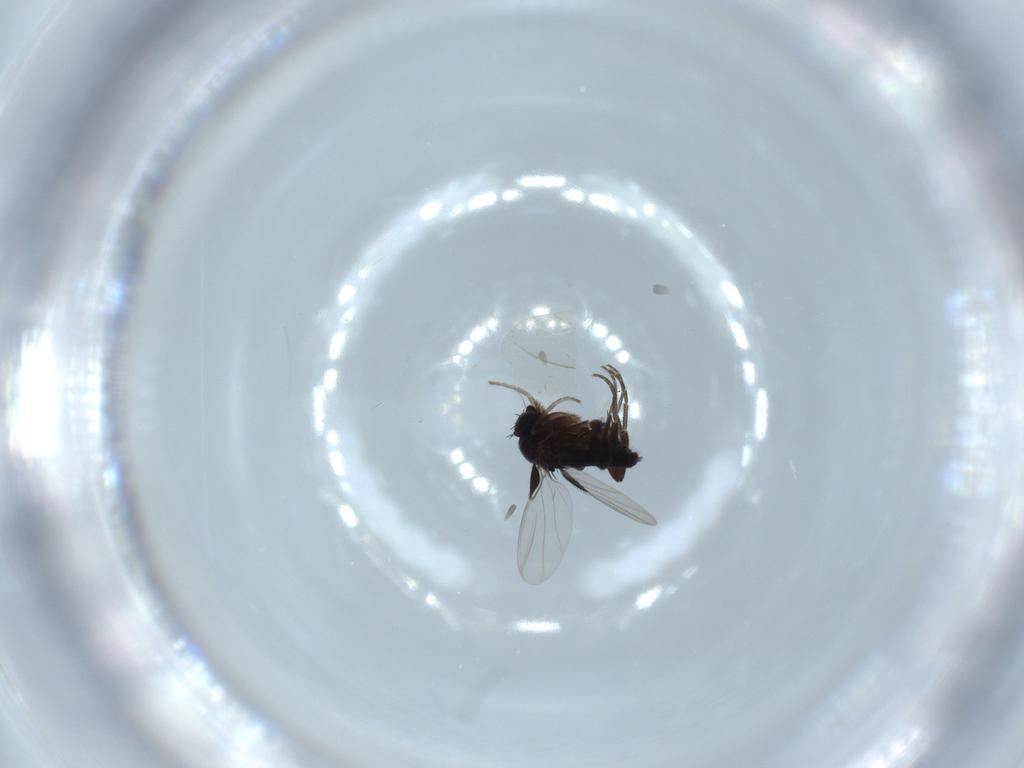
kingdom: Animalia
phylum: Arthropoda
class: Insecta
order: Diptera
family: Phoridae
